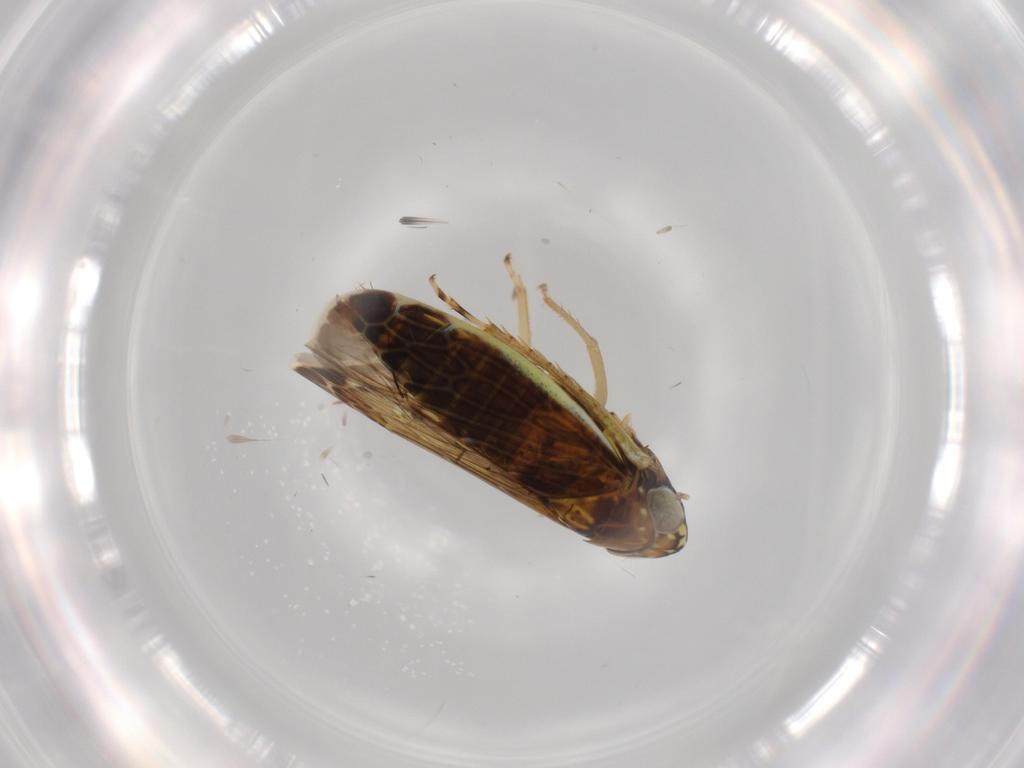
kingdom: Animalia
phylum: Arthropoda
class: Insecta
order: Hemiptera
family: Cicadellidae
